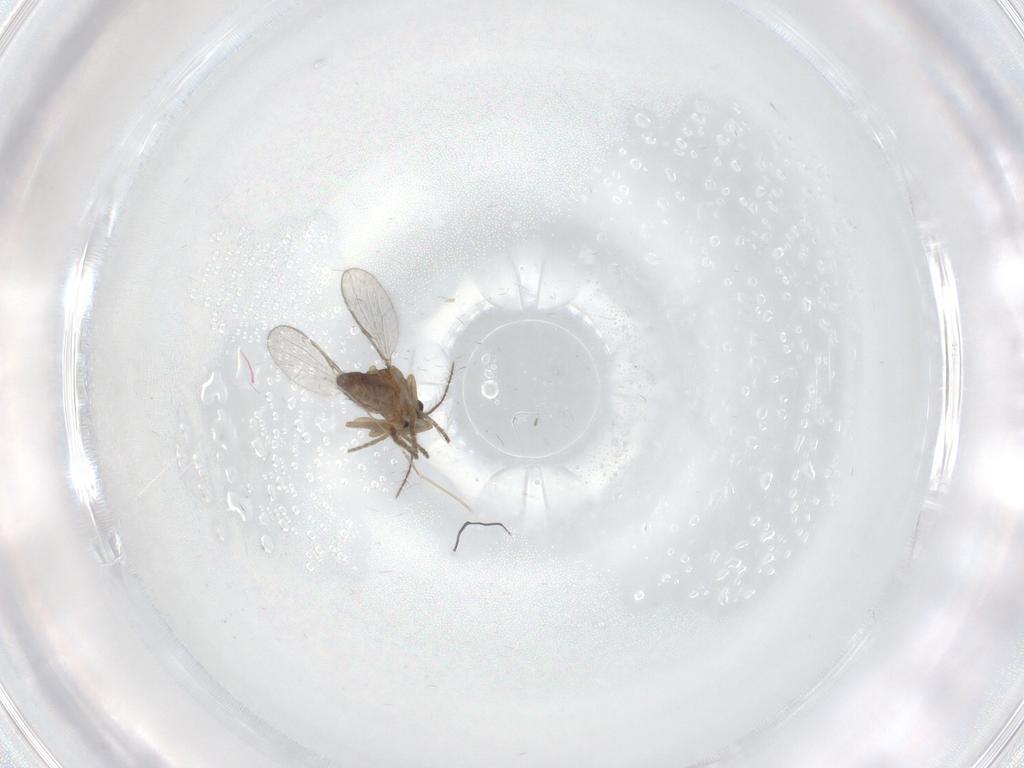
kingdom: Animalia
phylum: Arthropoda
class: Insecta
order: Diptera
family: Ceratopogonidae
